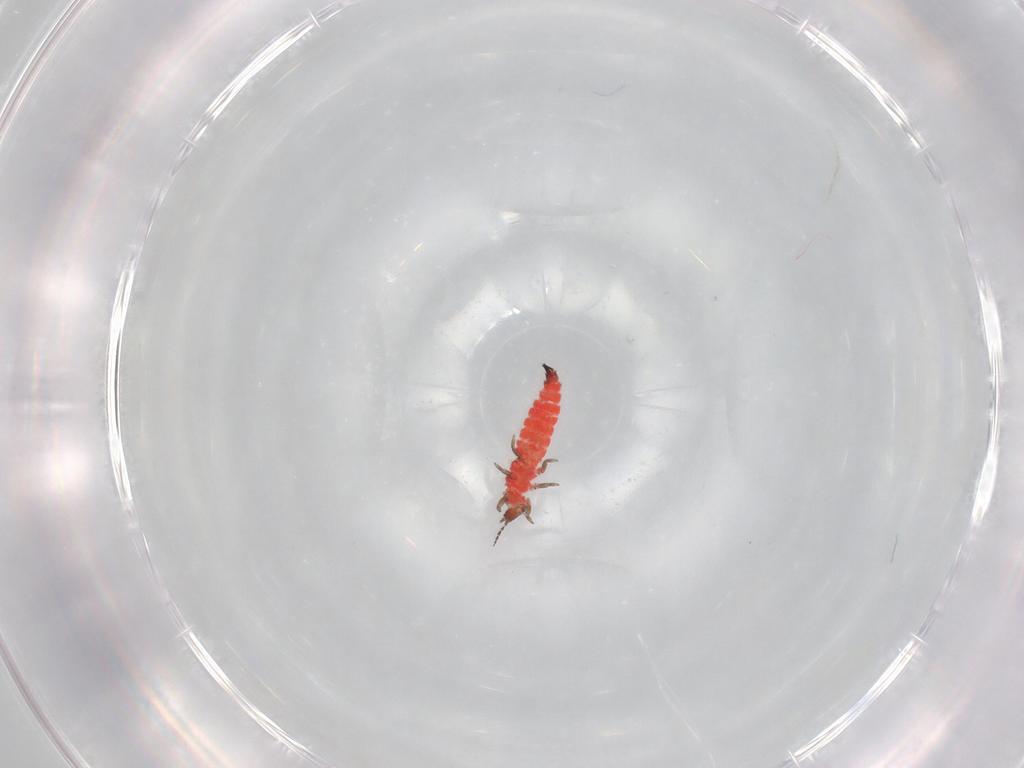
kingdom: Animalia
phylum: Arthropoda
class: Insecta
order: Thysanoptera
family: Phlaeothripidae
